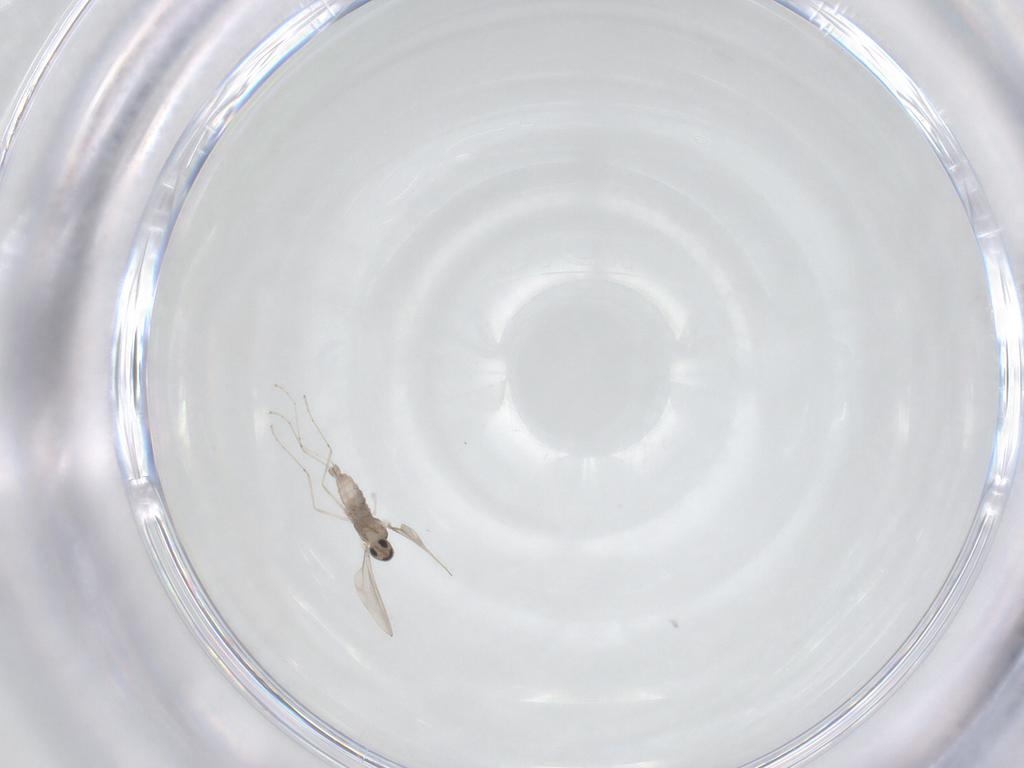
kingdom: Animalia
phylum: Arthropoda
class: Insecta
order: Diptera
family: Cecidomyiidae
